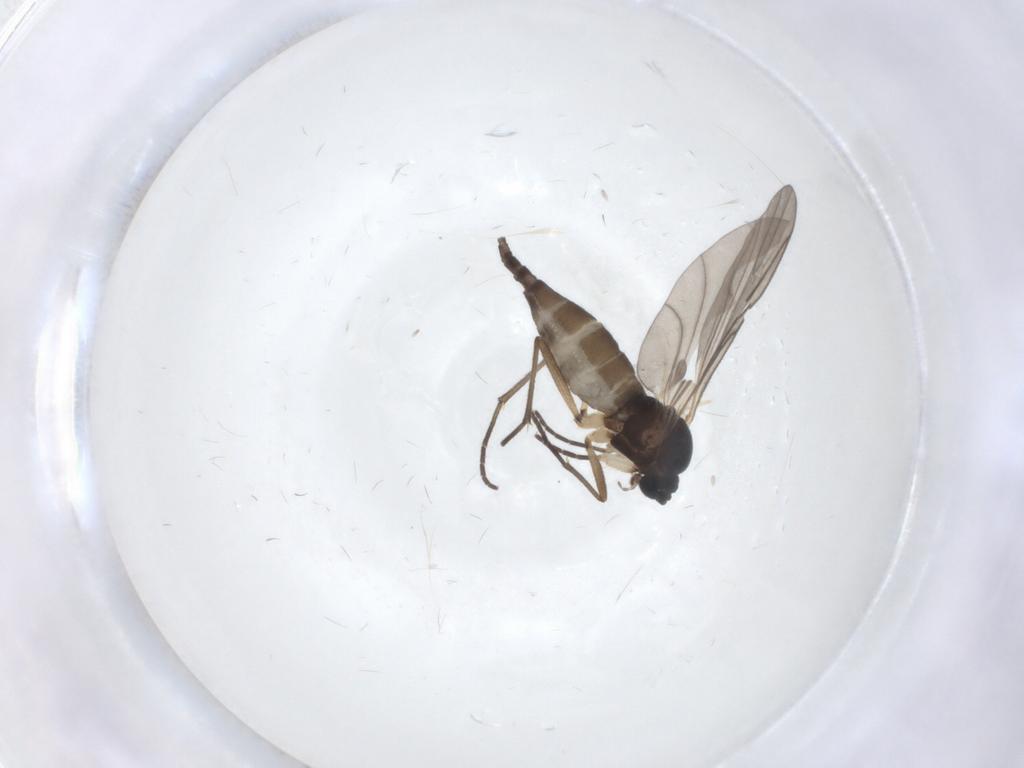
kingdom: Animalia
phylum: Arthropoda
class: Insecta
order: Diptera
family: Sciaridae
